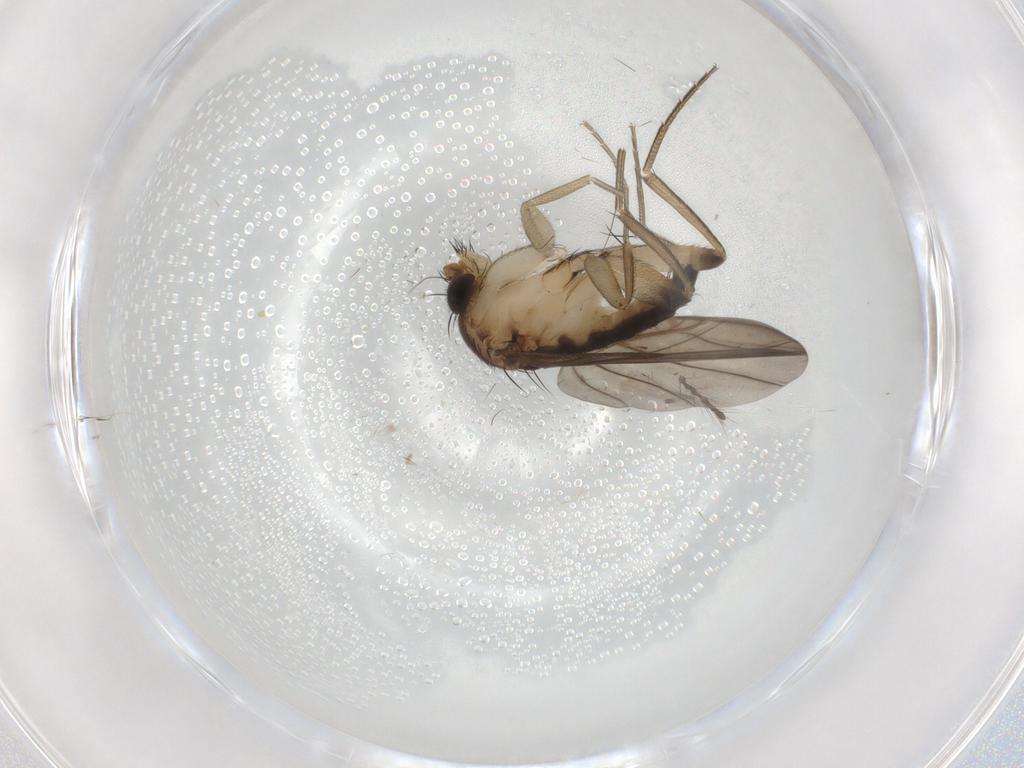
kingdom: Animalia
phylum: Arthropoda
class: Insecta
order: Diptera
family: Phoridae
